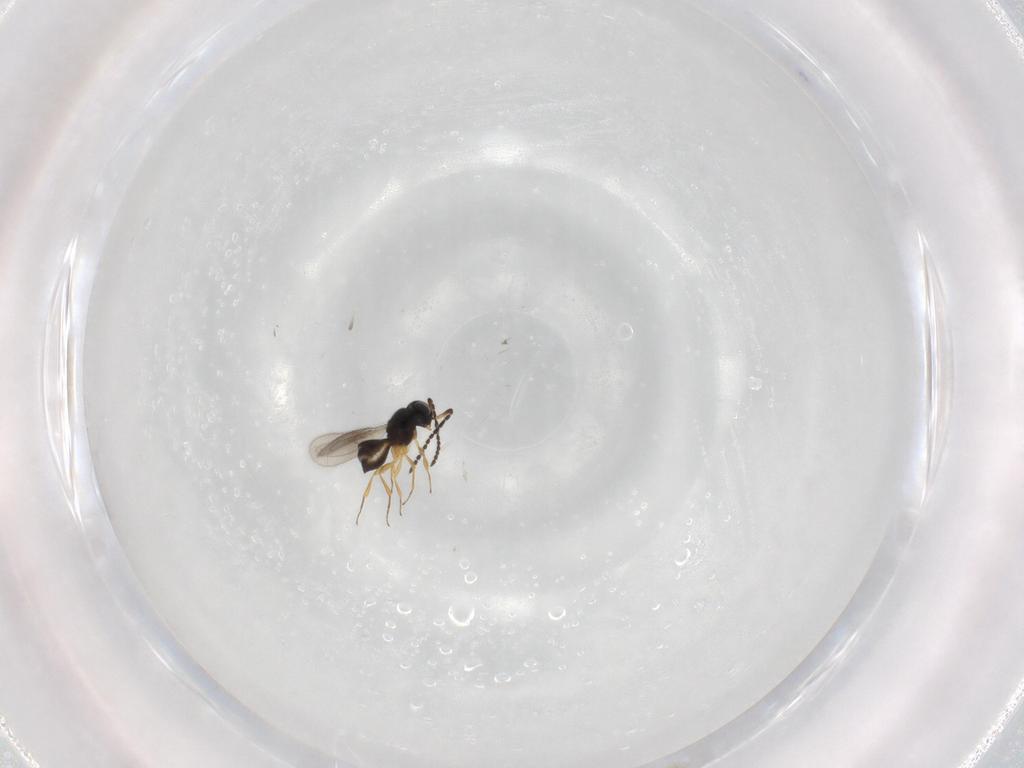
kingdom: Animalia
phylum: Arthropoda
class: Insecta
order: Hymenoptera
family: Scelionidae
